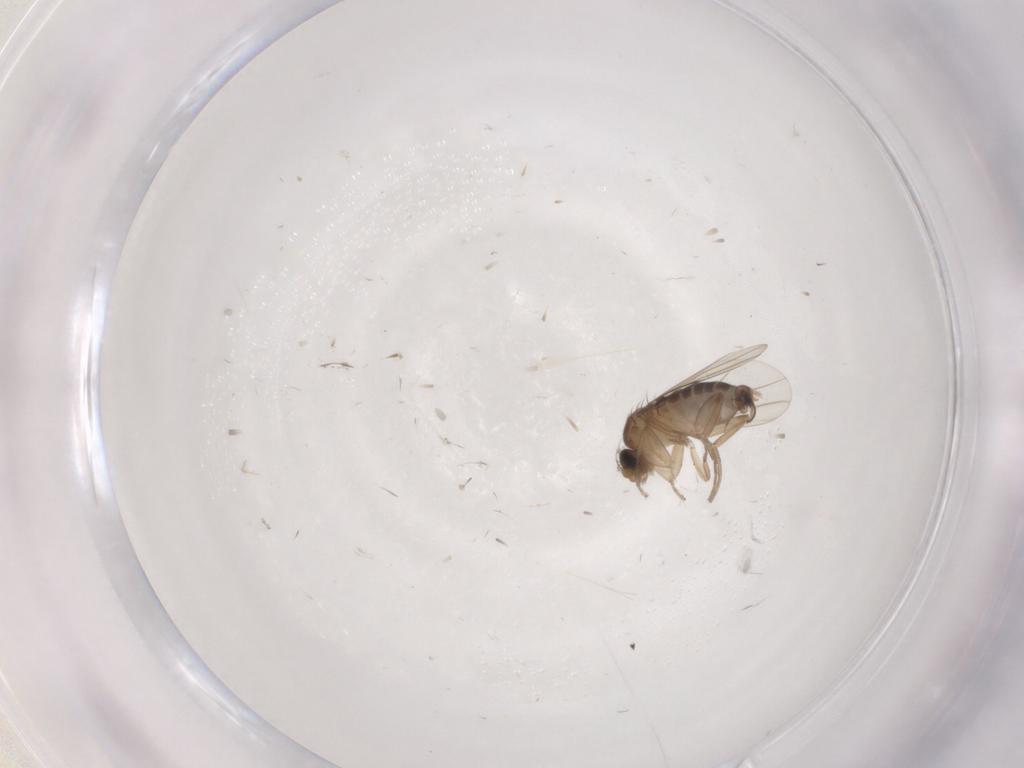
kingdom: Animalia
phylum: Arthropoda
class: Insecta
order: Diptera
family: Phoridae
